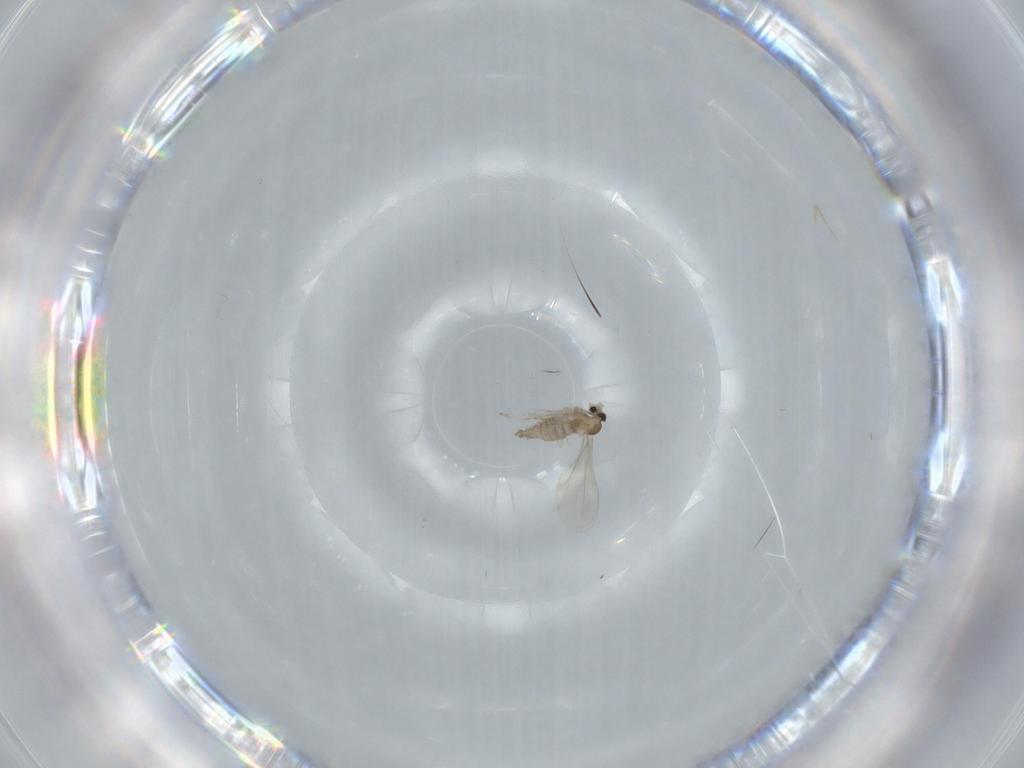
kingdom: Animalia
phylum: Arthropoda
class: Insecta
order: Diptera
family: Cecidomyiidae
